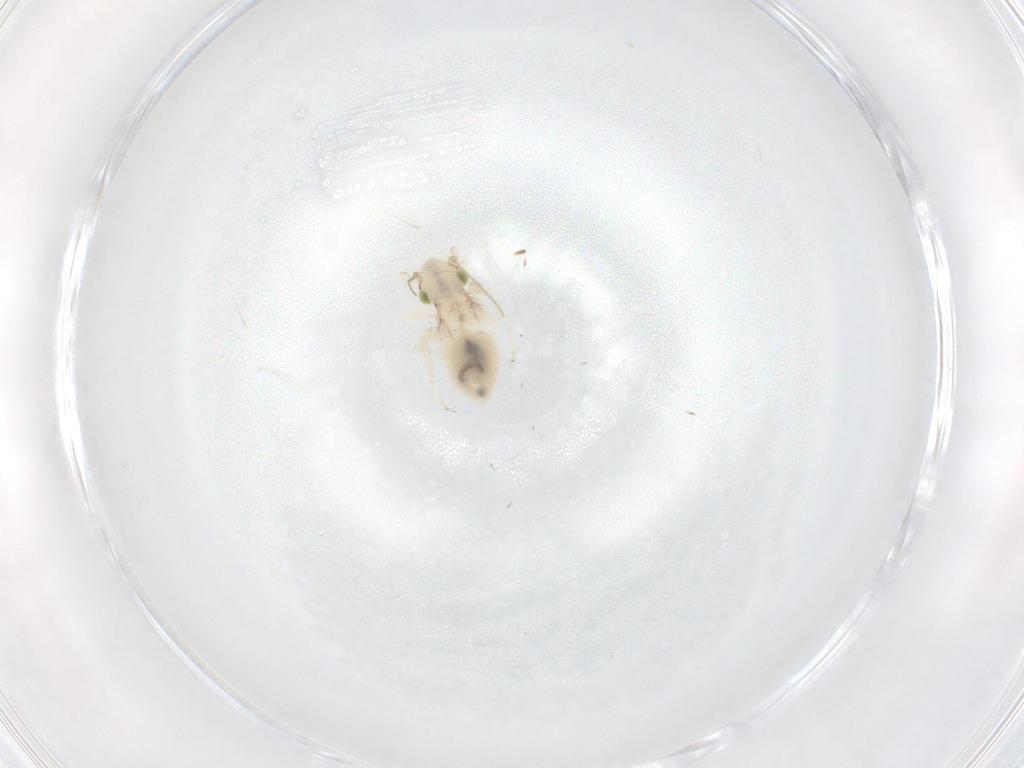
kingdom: Animalia
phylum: Arthropoda
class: Insecta
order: Psocodea
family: Lepidopsocidae
